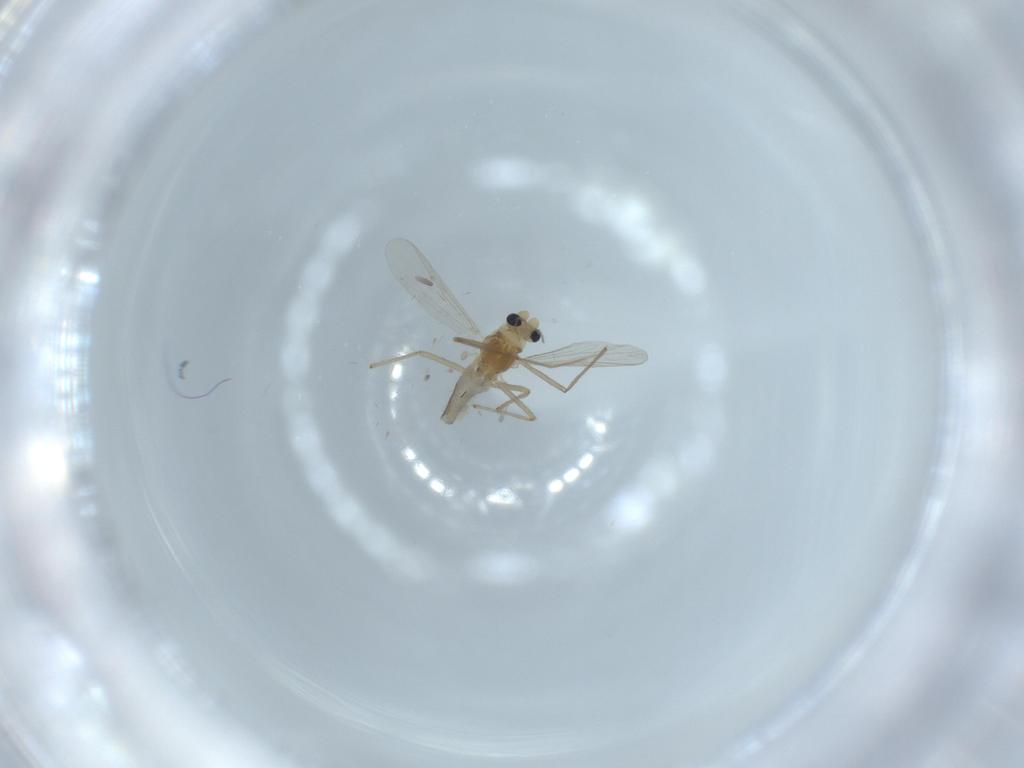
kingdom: Animalia
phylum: Arthropoda
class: Insecta
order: Diptera
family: Chironomidae
